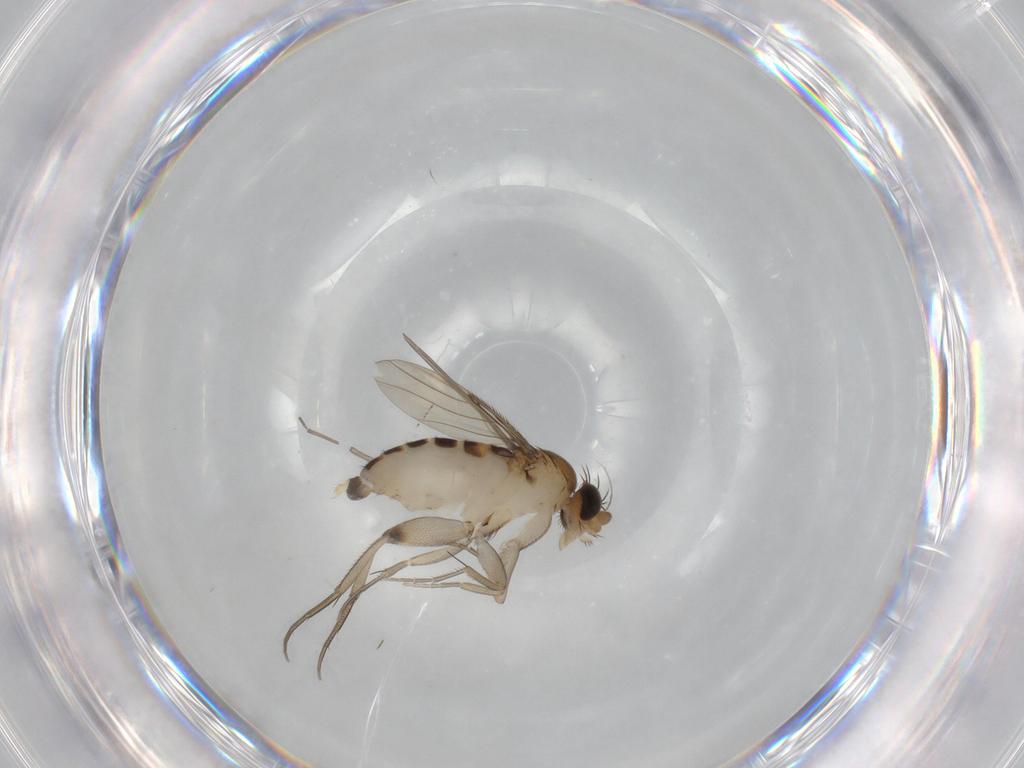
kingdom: Animalia
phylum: Arthropoda
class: Insecta
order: Diptera
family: Phoridae
